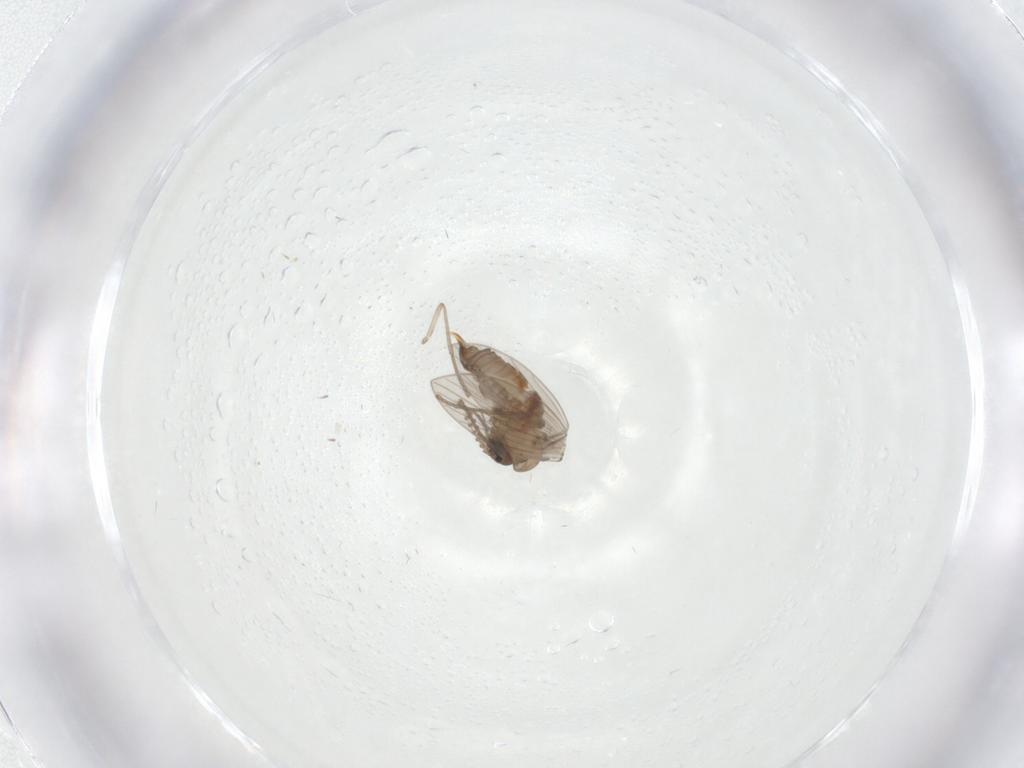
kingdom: Animalia
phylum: Arthropoda
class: Insecta
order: Diptera
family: Psychodidae
